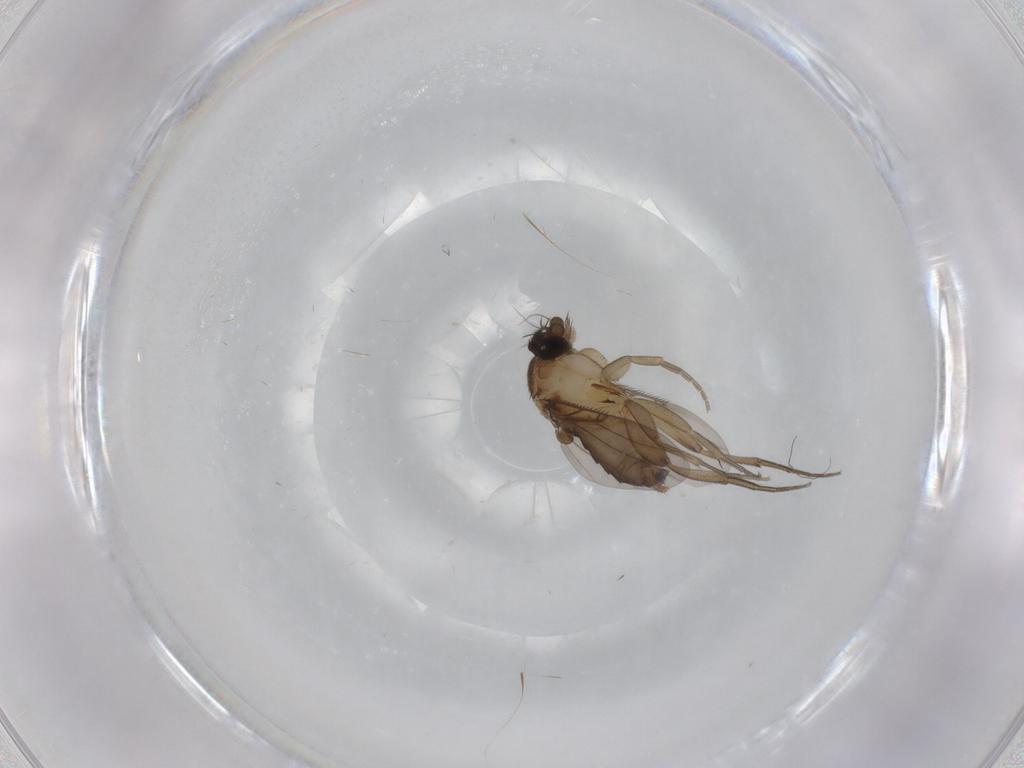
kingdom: Animalia
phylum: Arthropoda
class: Insecta
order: Diptera
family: Phoridae
